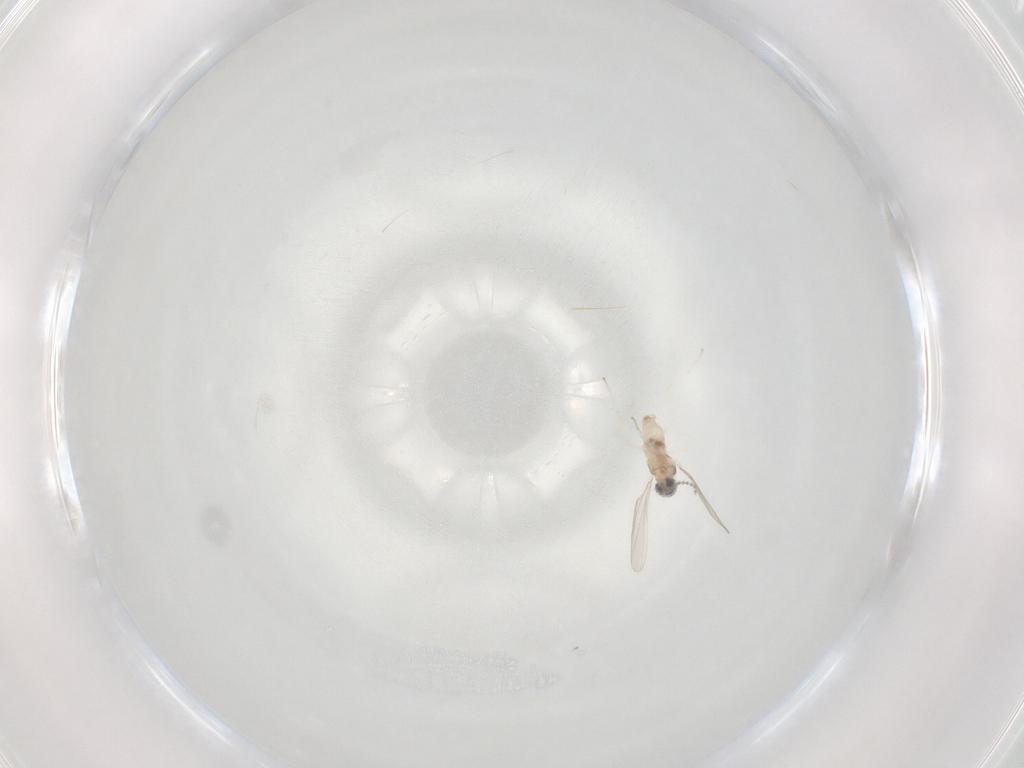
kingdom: Animalia
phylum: Arthropoda
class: Insecta
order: Diptera
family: Cecidomyiidae
